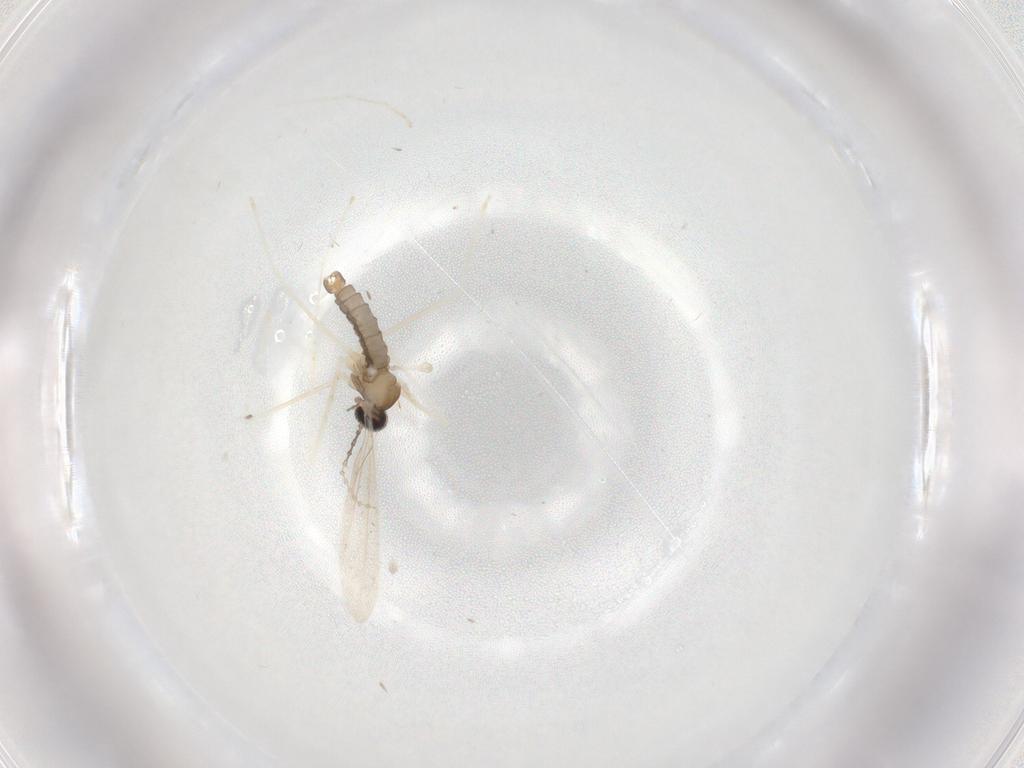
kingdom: Animalia
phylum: Arthropoda
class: Insecta
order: Diptera
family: Cecidomyiidae
